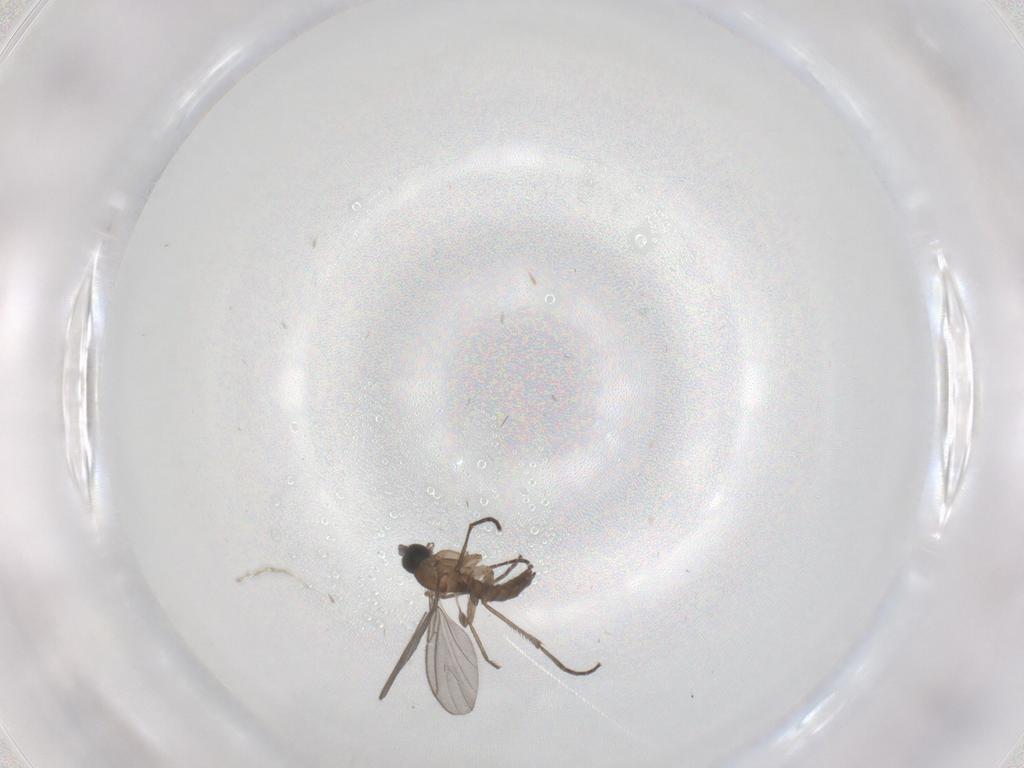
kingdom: Animalia
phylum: Arthropoda
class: Insecta
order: Diptera
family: Sciaridae
